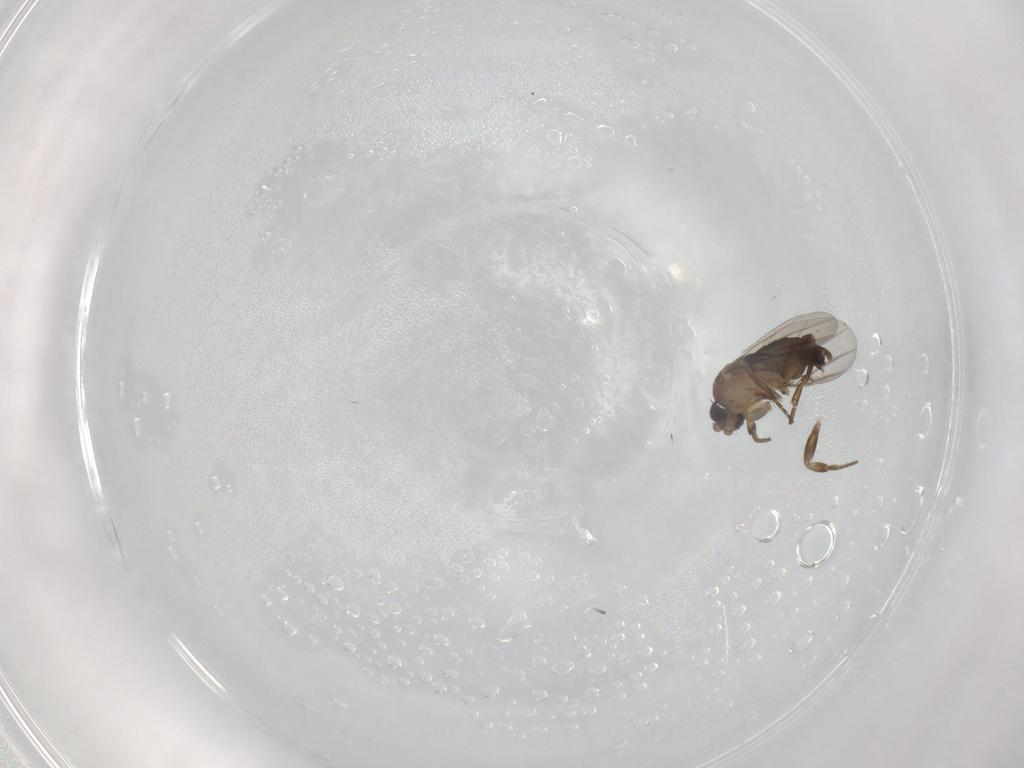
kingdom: Animalia
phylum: Arthropoda
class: Insecta
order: Diptera
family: Phoridae
